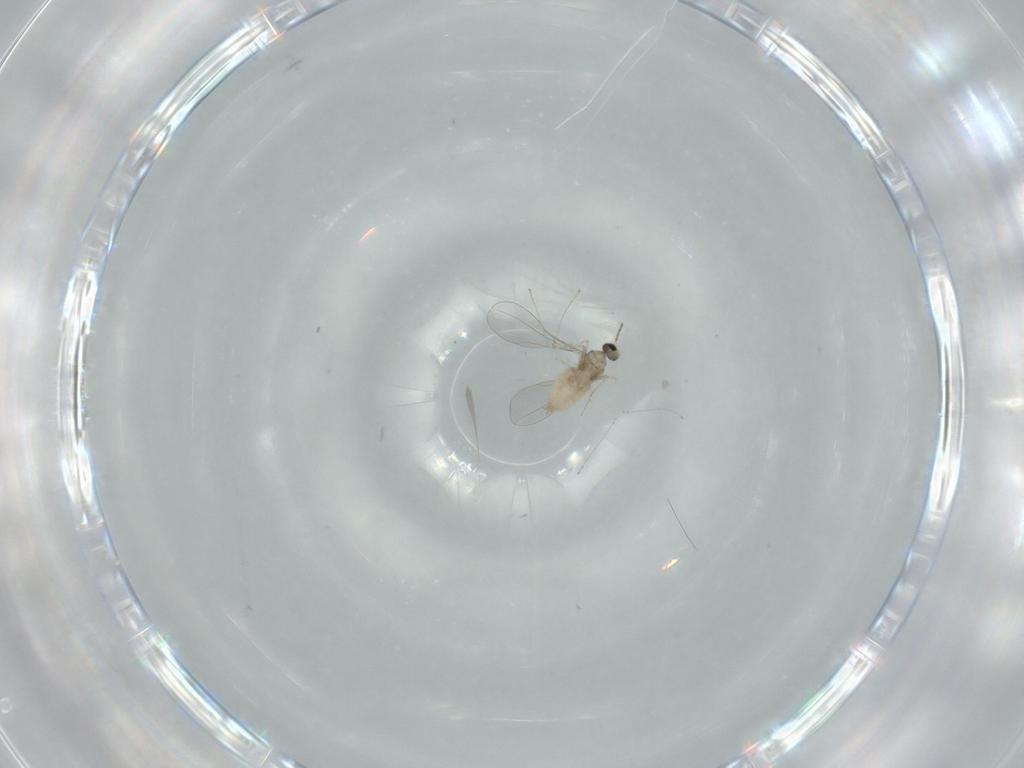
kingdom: Animalia
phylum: Arthropoda
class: Insecta
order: Diptera
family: Cecidomyiidae
